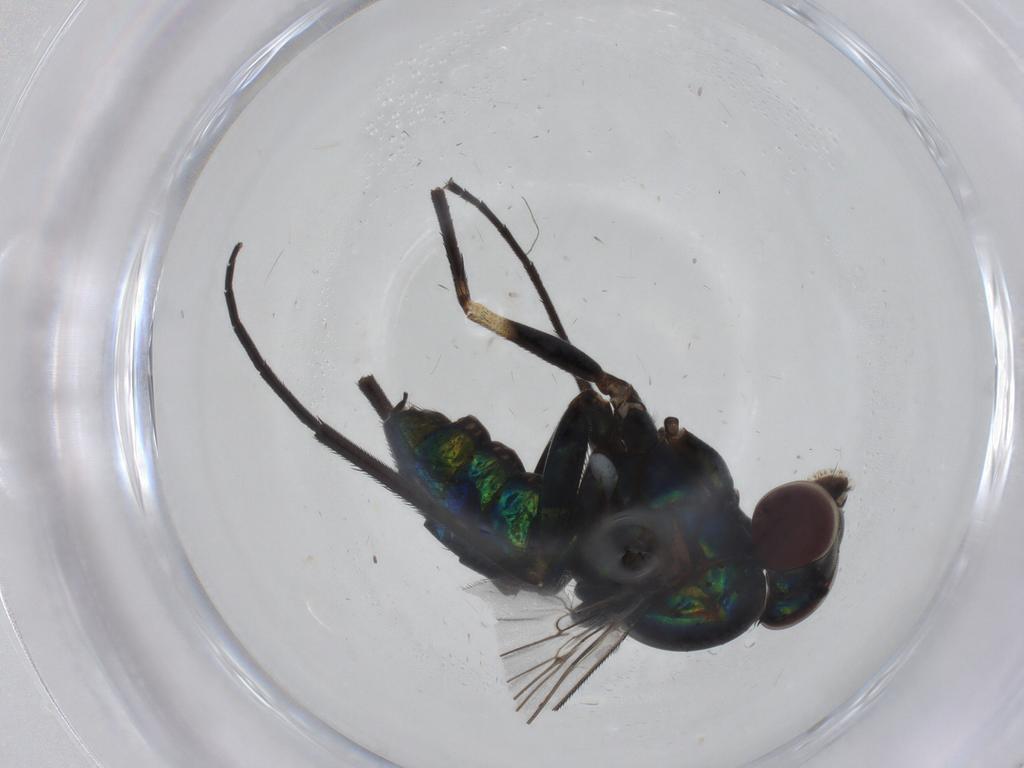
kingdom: Animalia
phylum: Arthropoda
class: Insecta
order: Diptera
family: Dolichopodidae
